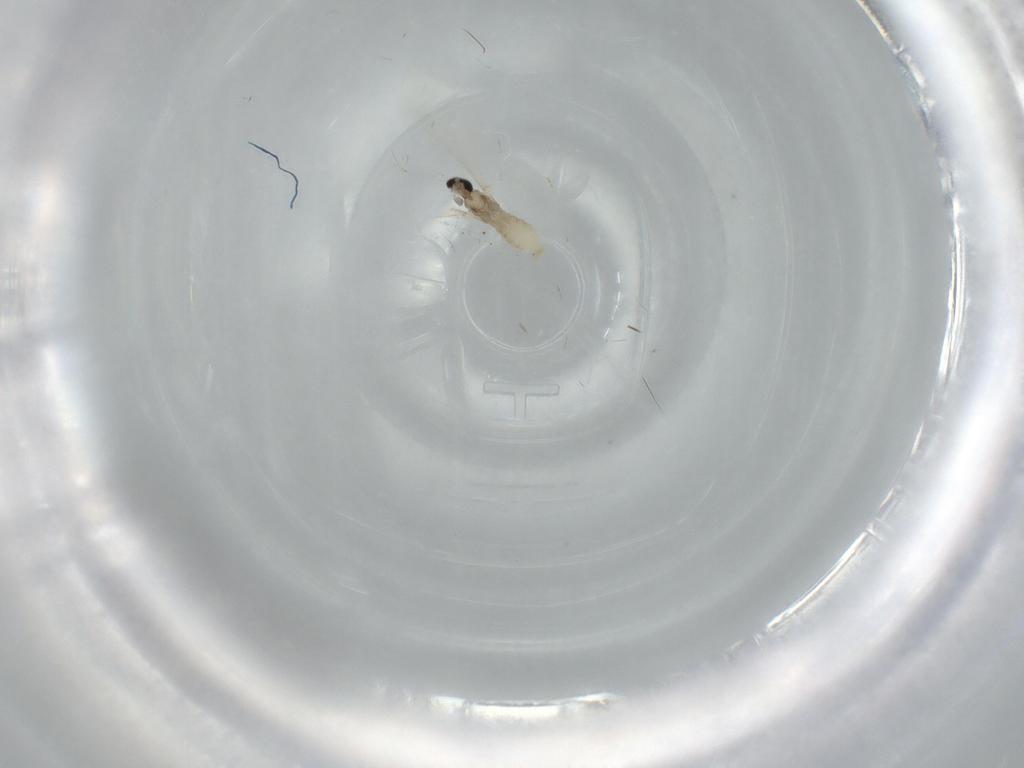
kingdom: Animalia
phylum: Arthropoda
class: Insecta
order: Diptera
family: Cecidomyiidae
